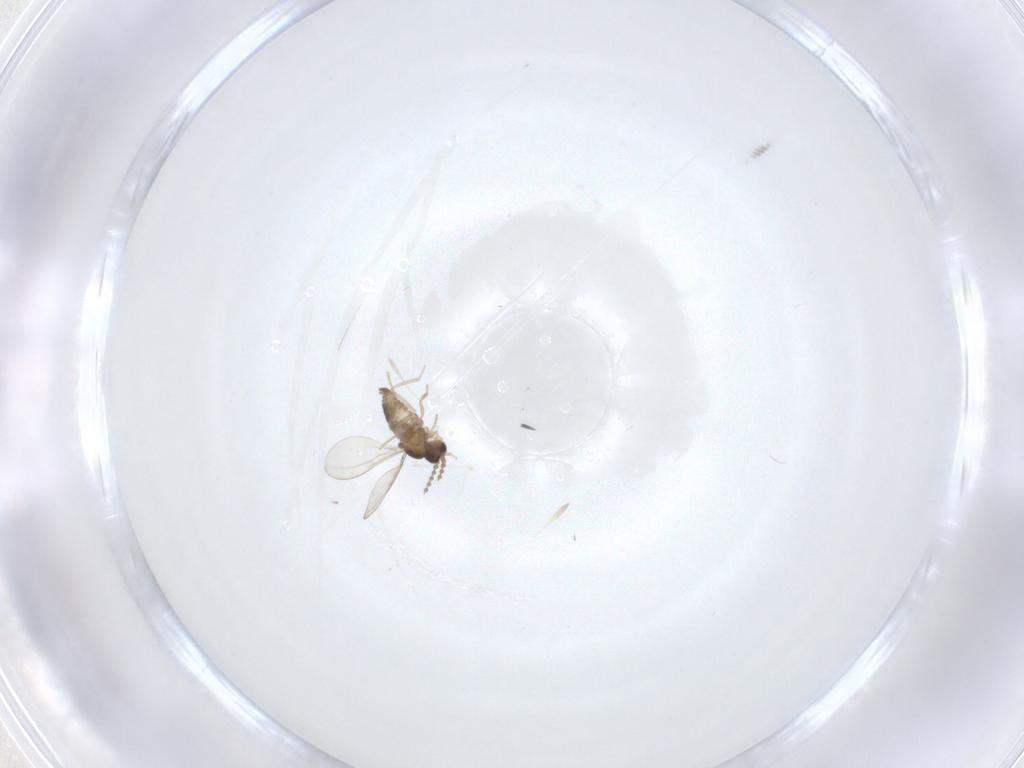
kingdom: Animalia
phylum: Arthropoda
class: Insecta
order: Diptera
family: Cecidomyiidae
